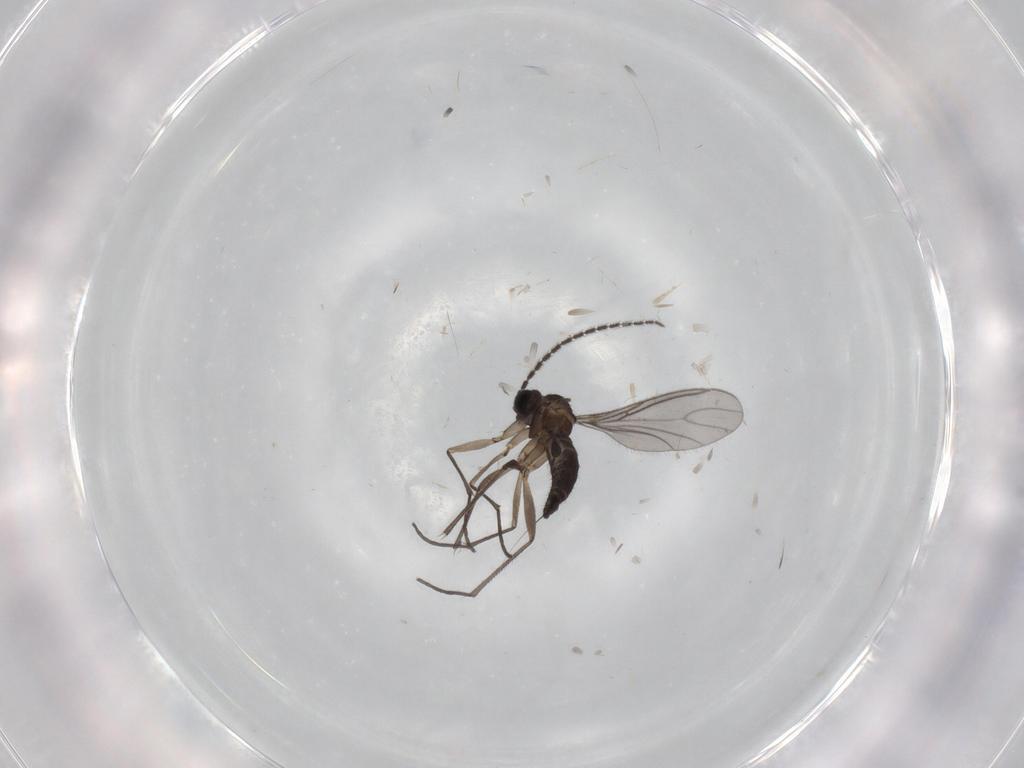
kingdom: Animalia
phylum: Arthropoda
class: Insecta
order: Diptera
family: Sciaridae
